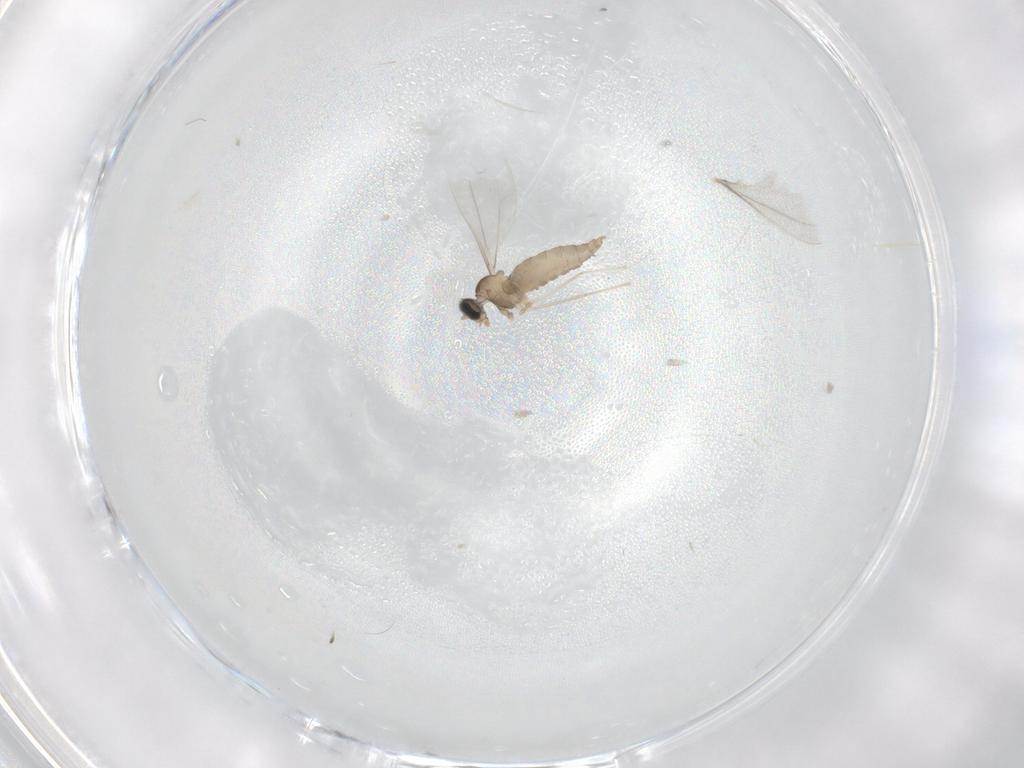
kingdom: Animalia
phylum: Arthropoda
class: Insecta
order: Diptera
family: Cecidomyiidae
